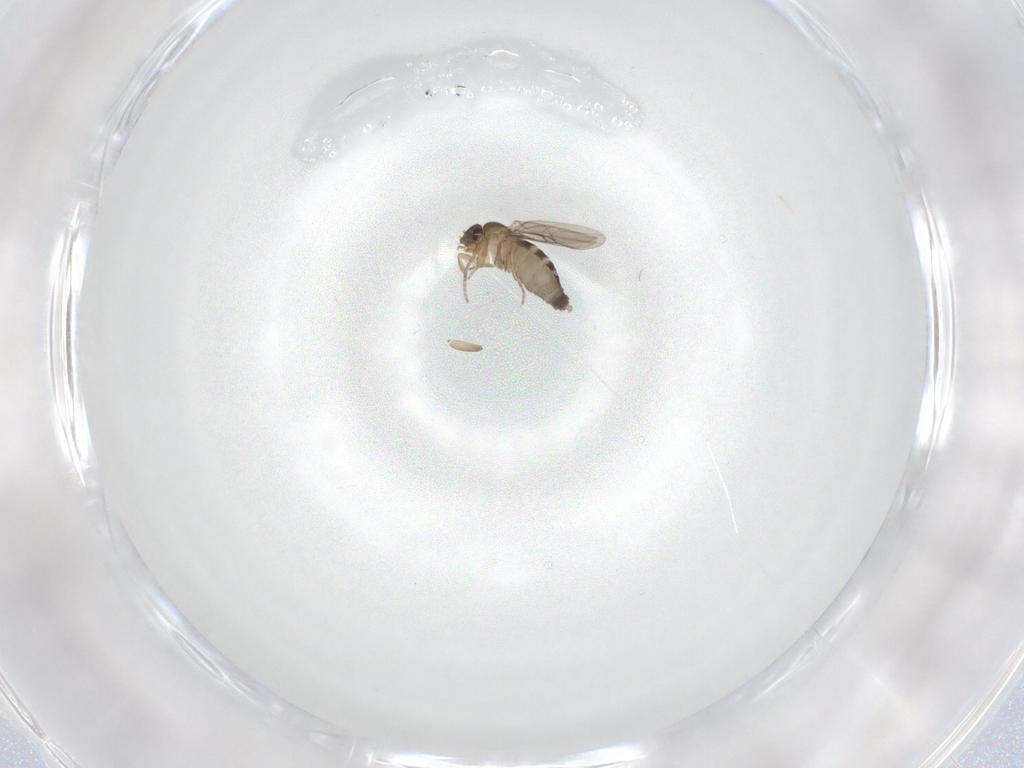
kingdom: Animalia
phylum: Arthropoda
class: Insecta
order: Diptera
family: Phoridae
